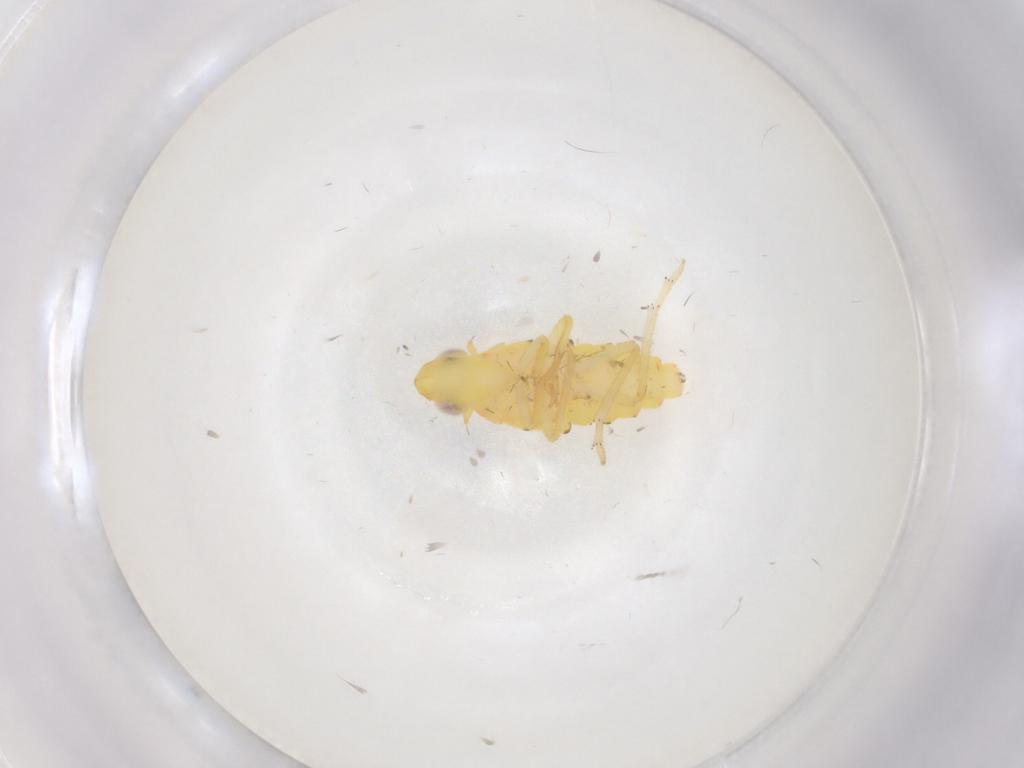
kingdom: Animalia
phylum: Arthropoda
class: Insecta
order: Hemiptera
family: Tropiduchidae
